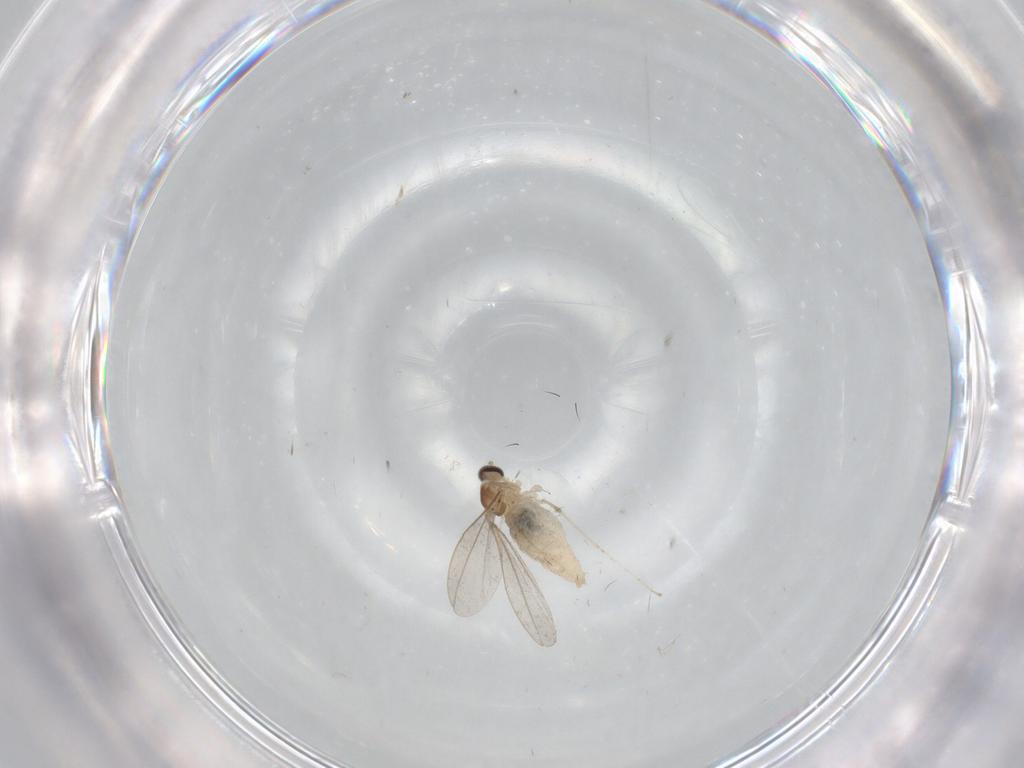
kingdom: Animalia
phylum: Arthropoda
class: Insecta
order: Diptera
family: Cecidomyiidae
